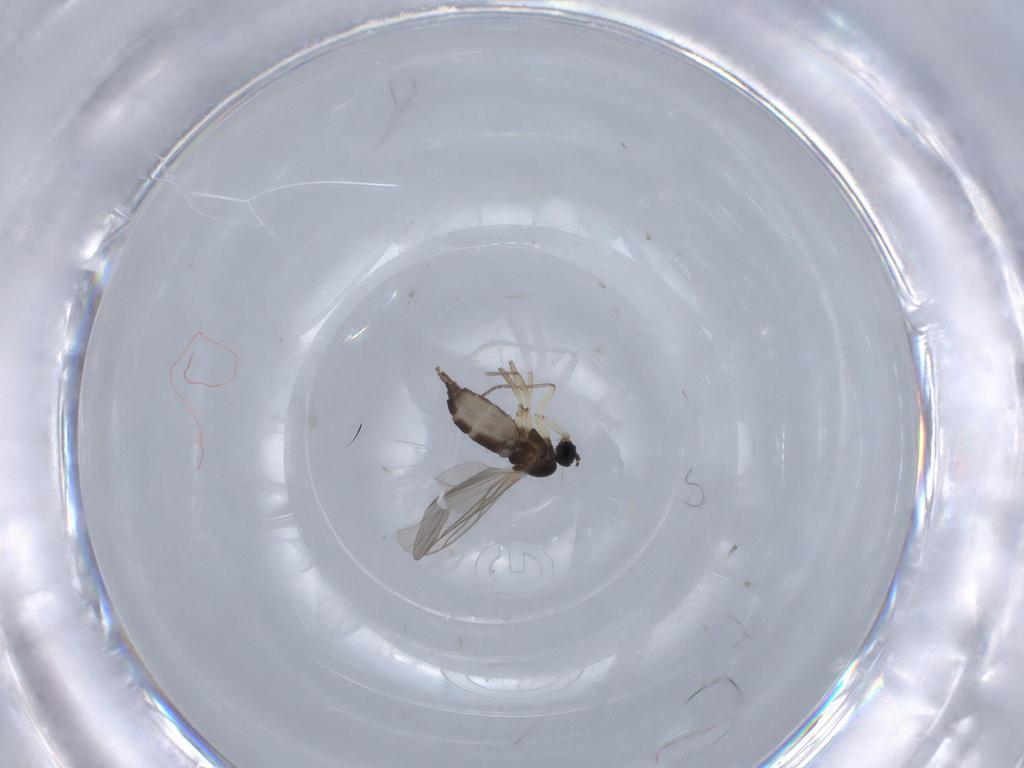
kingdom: Animalia
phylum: Arthropoda
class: Insecta
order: Diptera
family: Sciaridae
